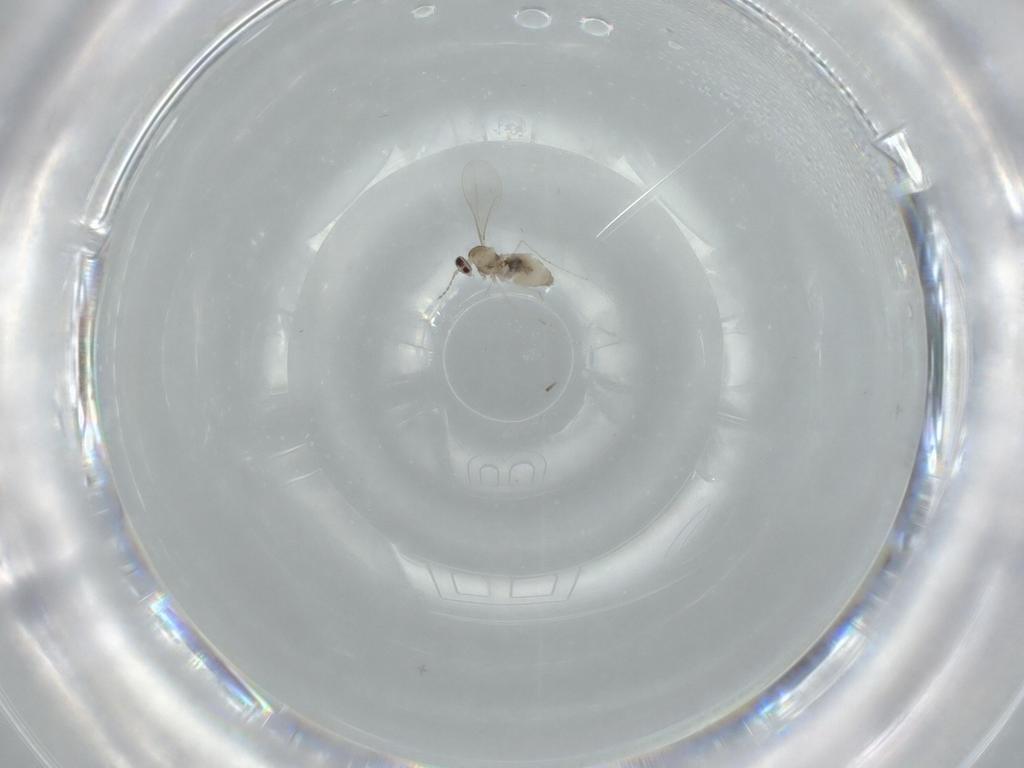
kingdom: Animalia
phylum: Arthropoda
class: Insecta
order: Diptera
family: Cecidomyiidae
